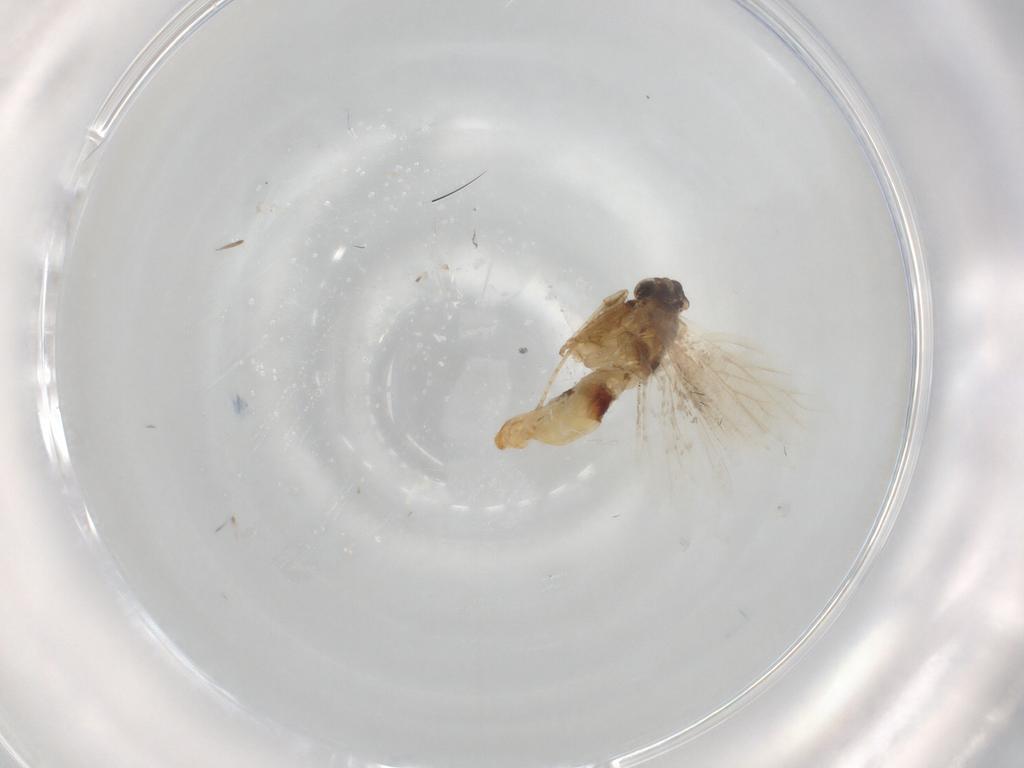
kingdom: Animalia
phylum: Arthropoda
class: Insecta
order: Lepidoptera
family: Nepticulidae
